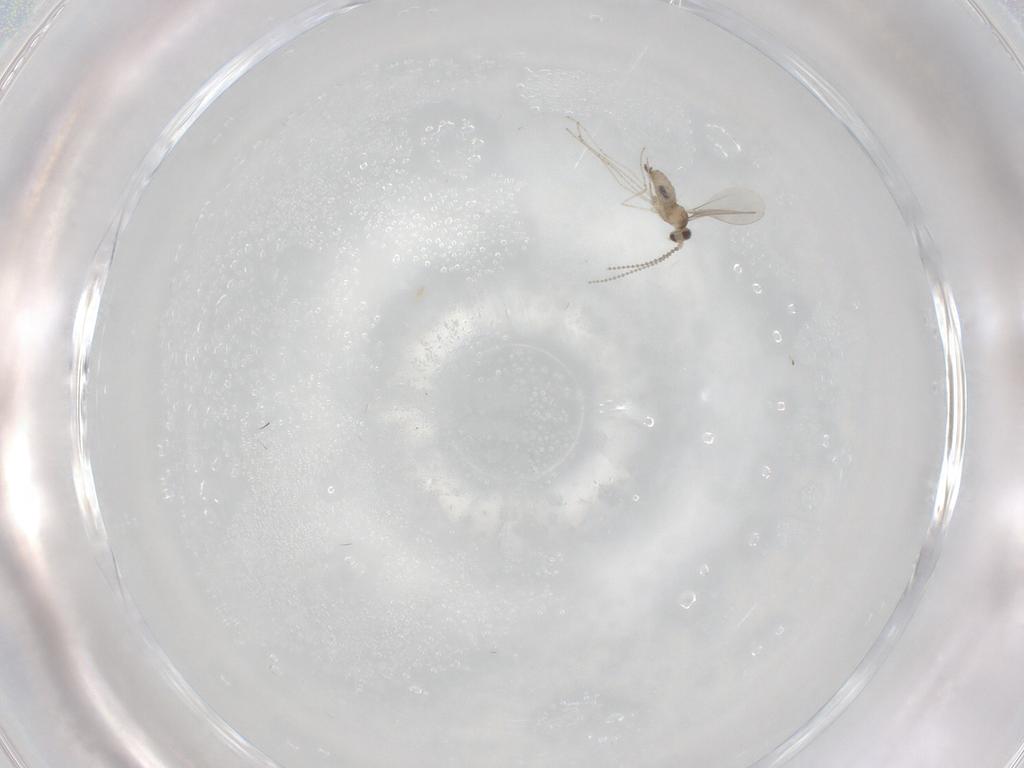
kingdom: Animalia
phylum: Arthropoda
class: Insecta
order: Diptera
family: Cecidomyiidae
